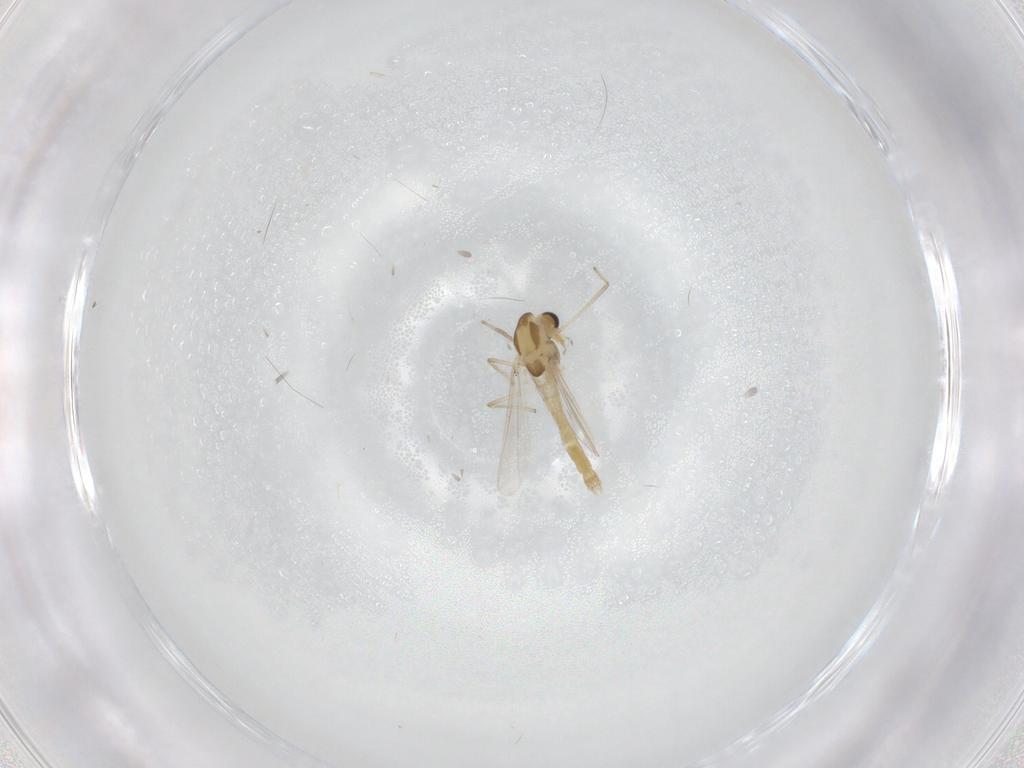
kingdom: Animalia
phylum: Arthropoda
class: Insecta
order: Diptera
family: Chironomidae
